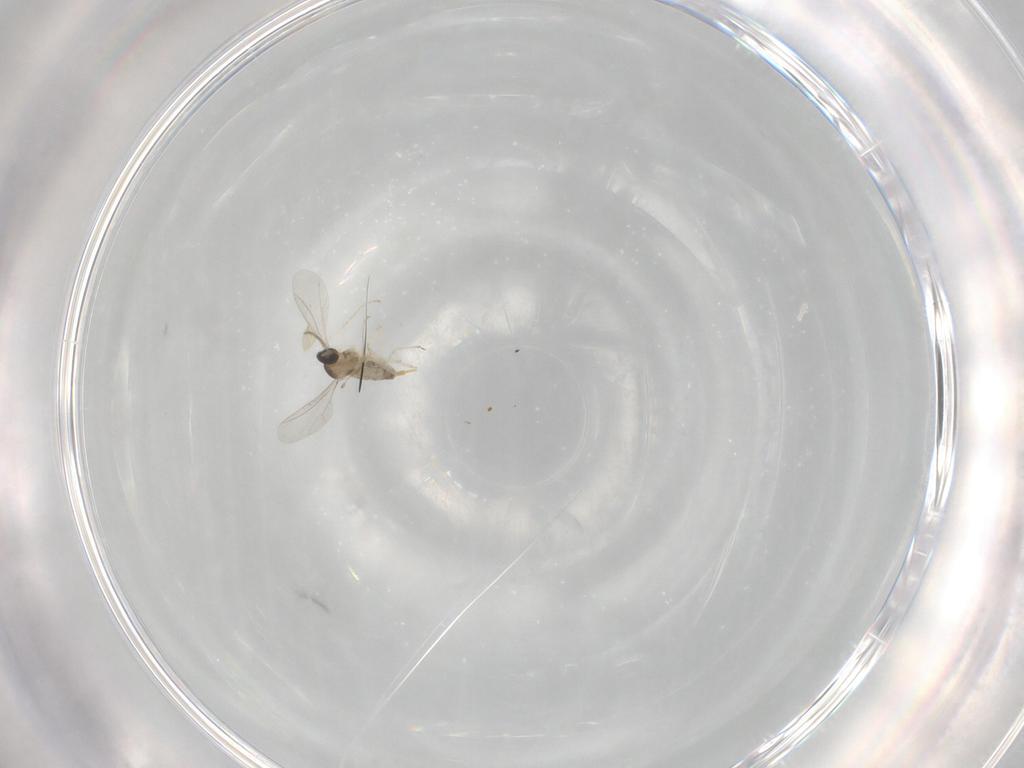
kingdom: Animalia
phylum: Arthropoda
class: Insecta
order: Diptera
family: Cecidomyiidae
